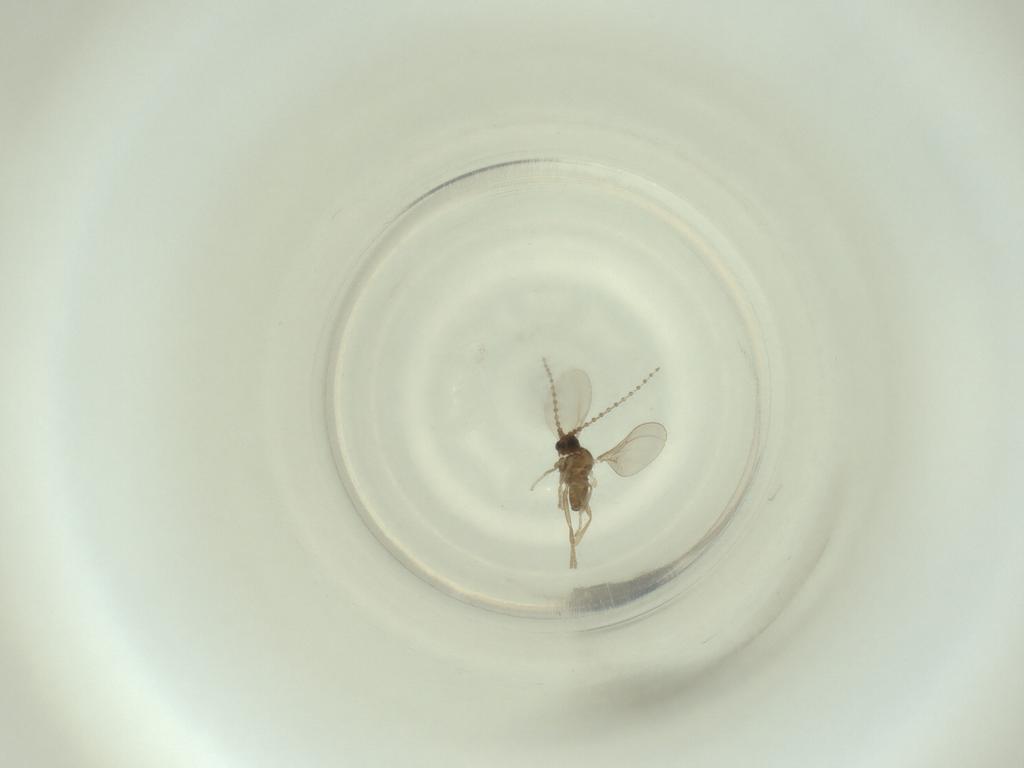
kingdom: Animalia
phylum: Arthropoda
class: Insecta
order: Diptera
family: Cecidomyiidae
